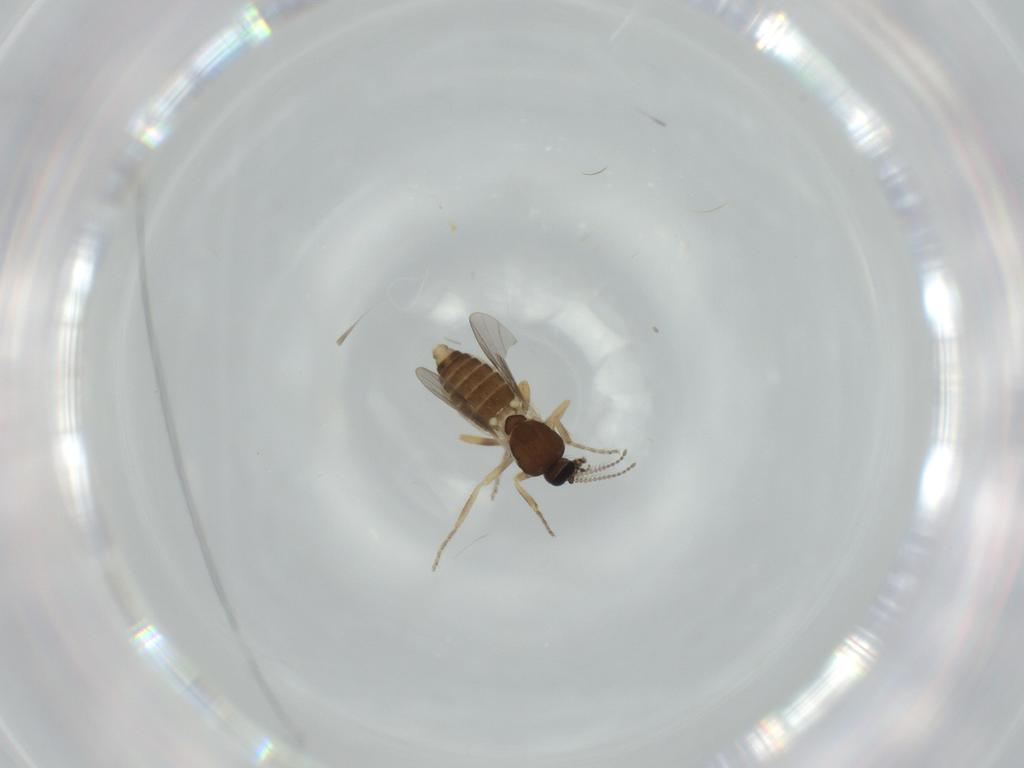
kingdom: Animalia
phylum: Arthropoda
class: Insecta
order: Diptera
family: Ceratopogonidae
